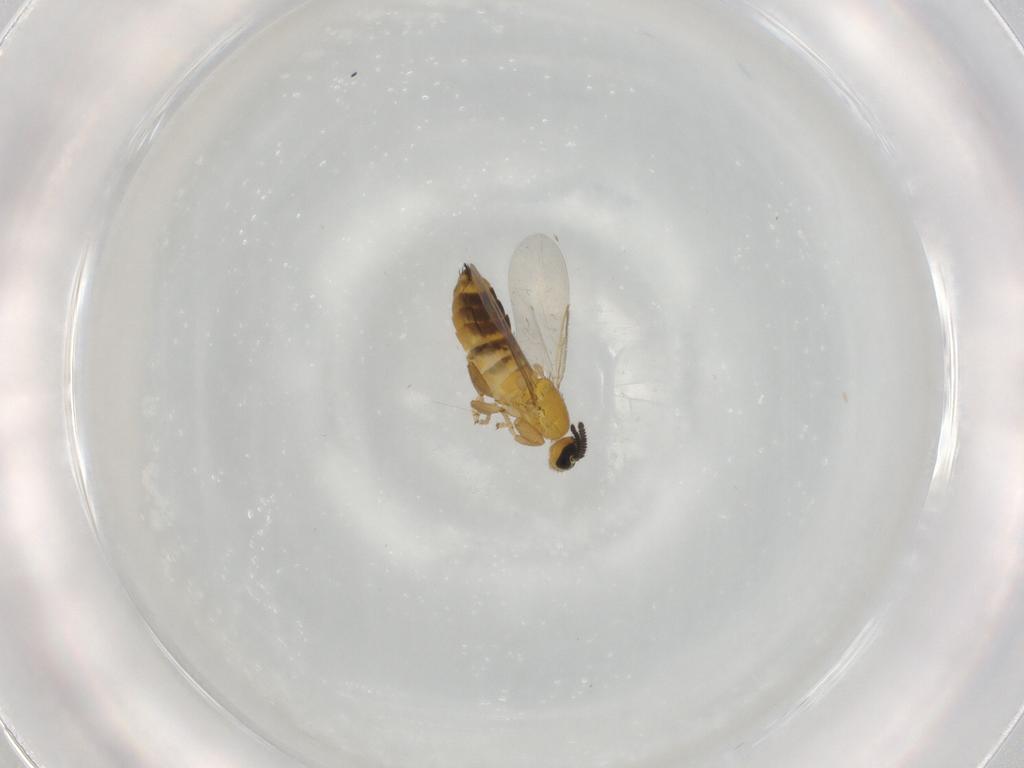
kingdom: Animalia
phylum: Arthropoda
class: Insecta
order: Diptera
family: Scatopsidae
